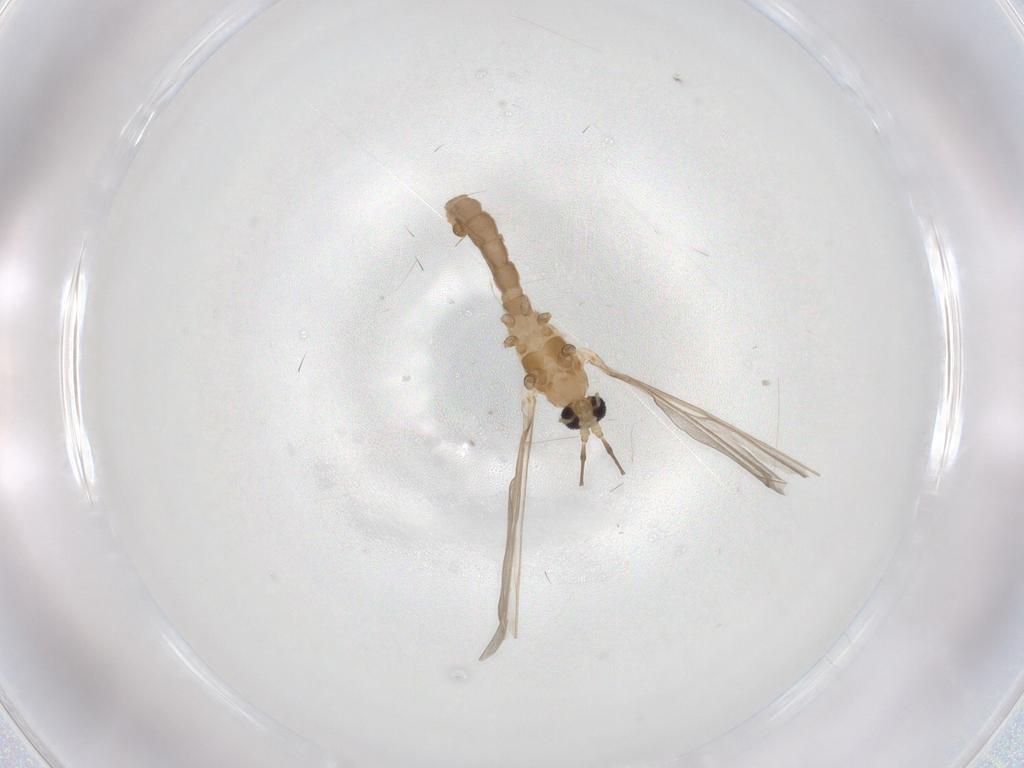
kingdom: Animalia
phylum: Arthropoda
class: Insecta
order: Diptera
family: Cecidomyiidae
